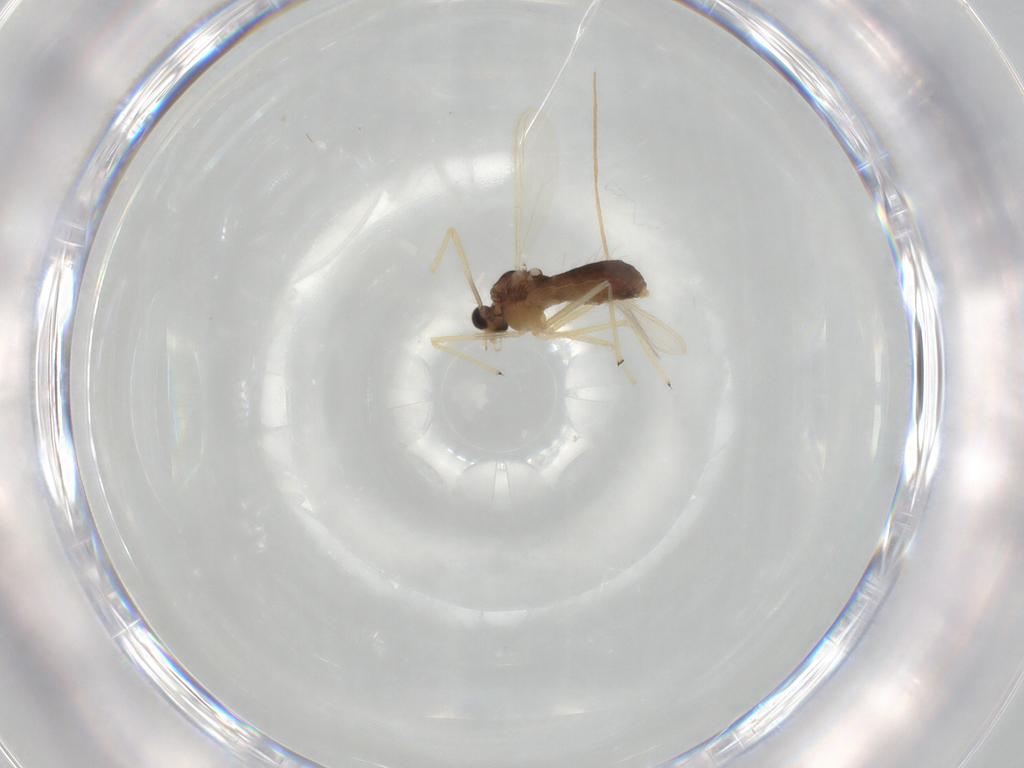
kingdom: Animalia
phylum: Arthropoda
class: Insecta
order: Diptera
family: Chironomidae
